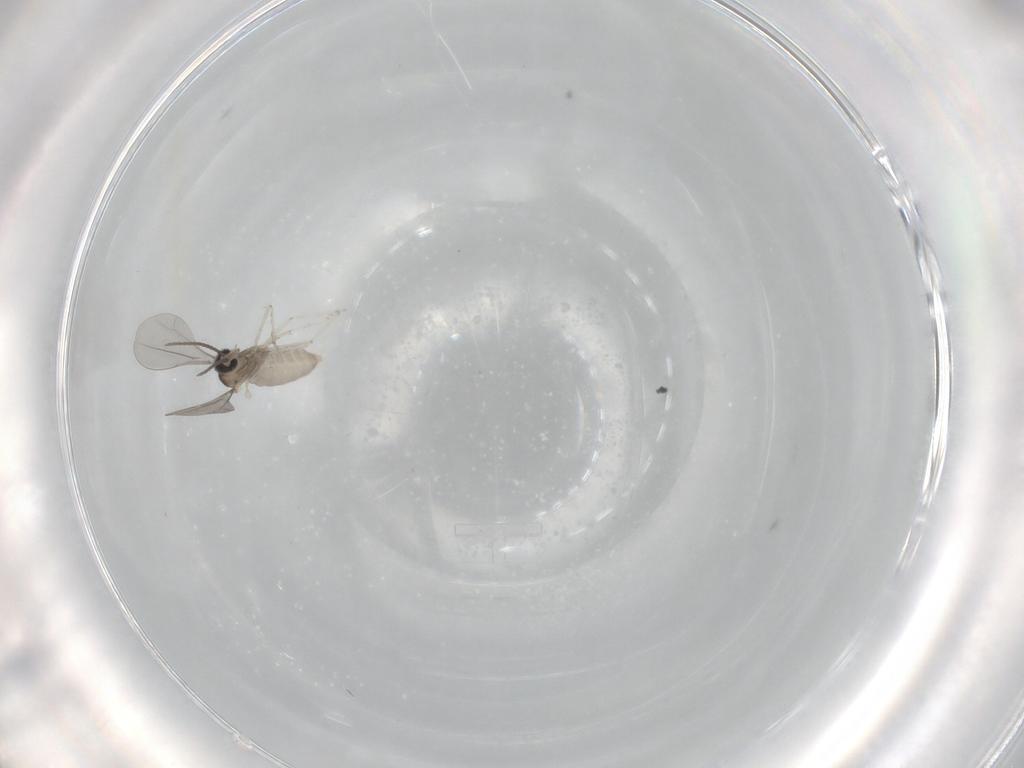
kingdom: Animalia
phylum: Arthropoda
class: Insecta
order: Diptera
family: Cecidomyiidae
